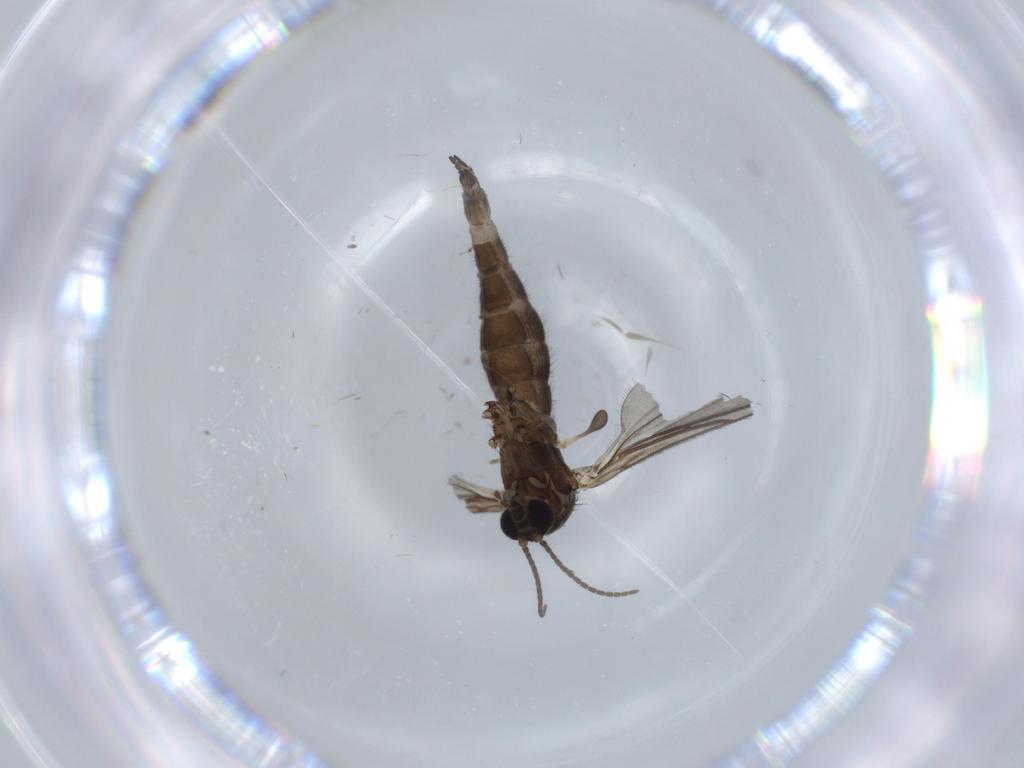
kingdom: Animalia
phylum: Arthropoda
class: Insecta
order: Diptera
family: Sciaridae
